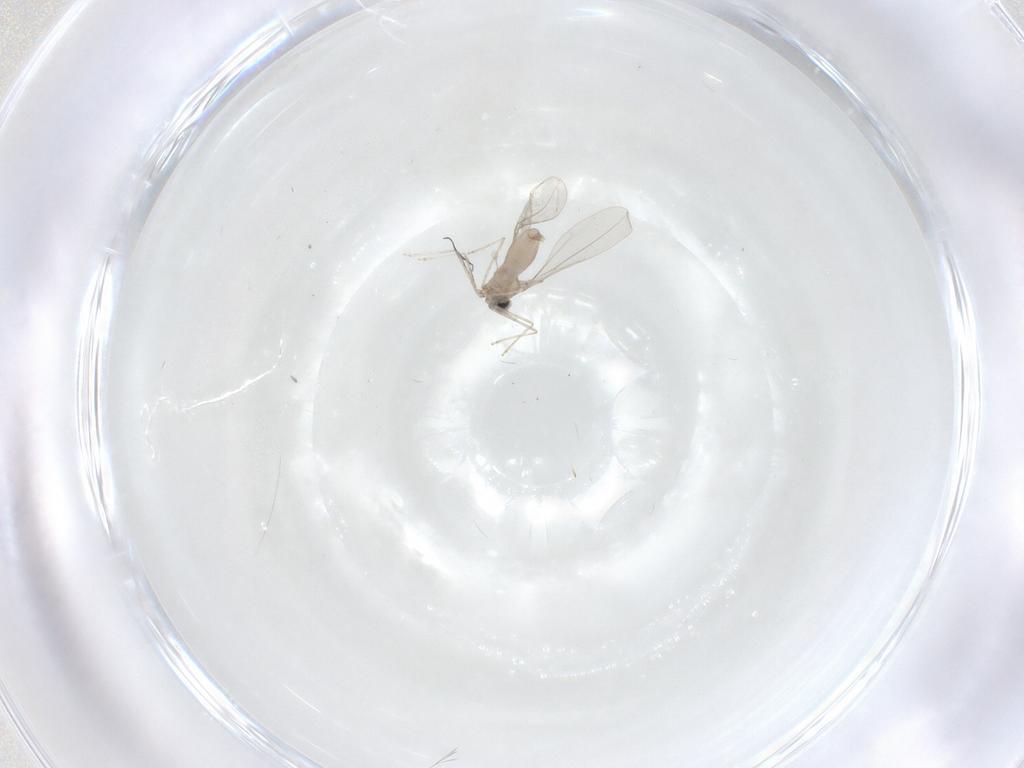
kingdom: Animalia
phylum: Arthropoda
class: Insecta
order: Diptera
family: Cecidomyiidae
